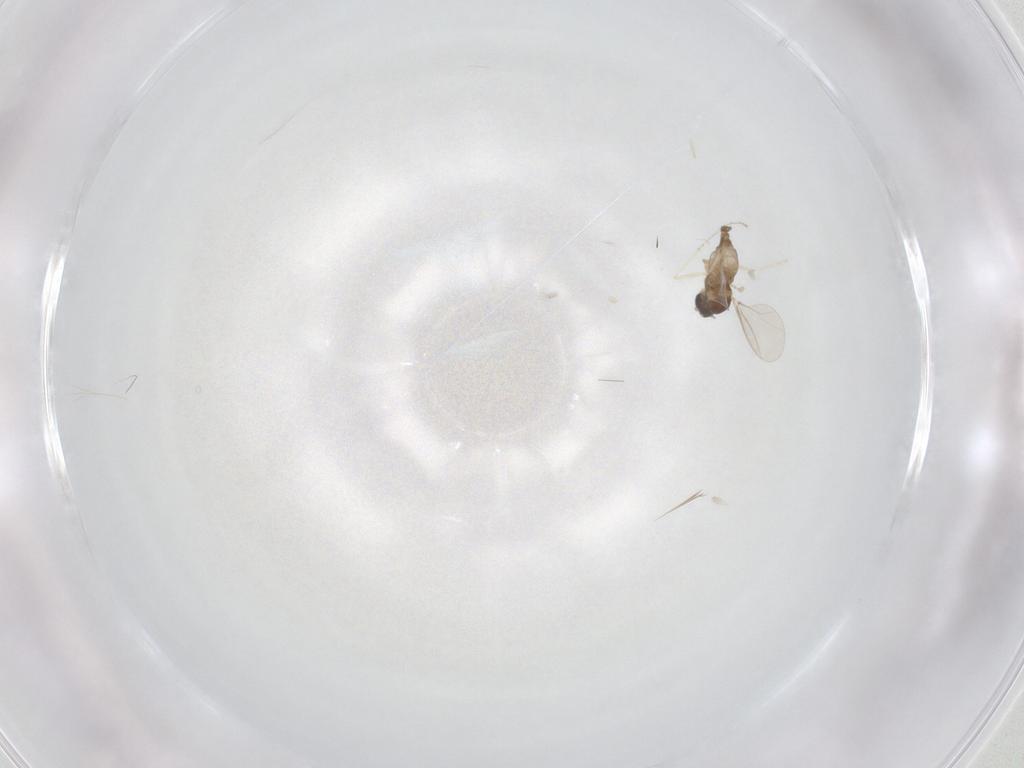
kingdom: Animalia
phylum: Arthropoda
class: Insecta
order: Diptera
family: Cecidomyiidae
